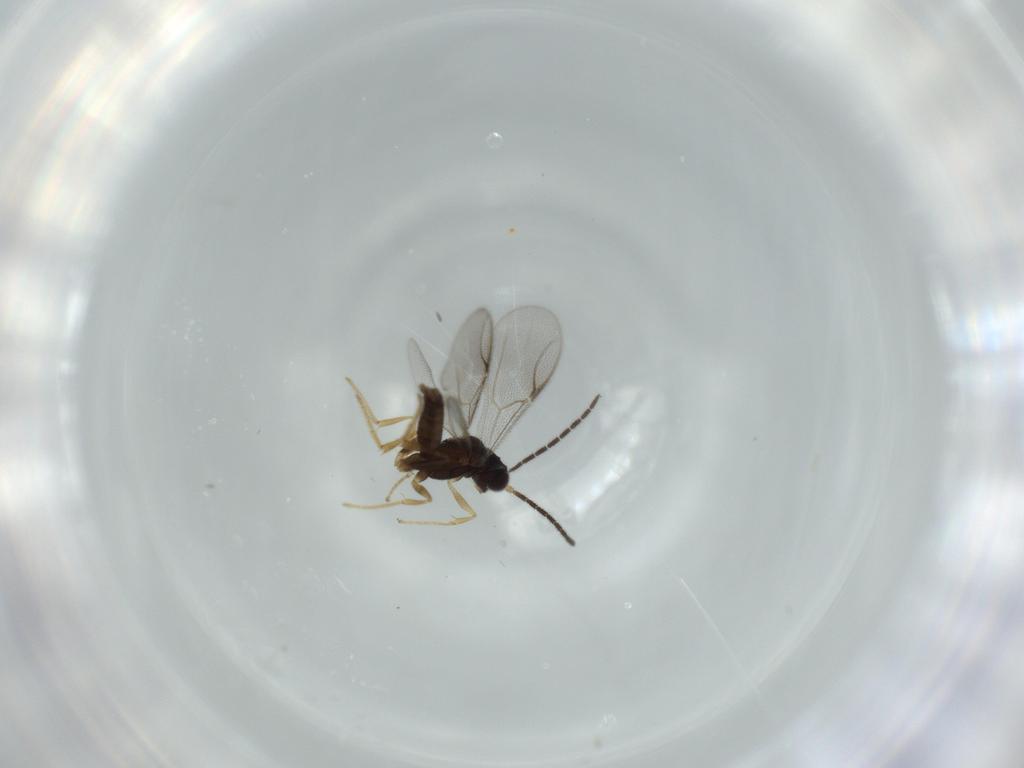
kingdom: Animalia
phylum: Arthropoda
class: Insecta
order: Hymenoptera
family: Dryinidae
